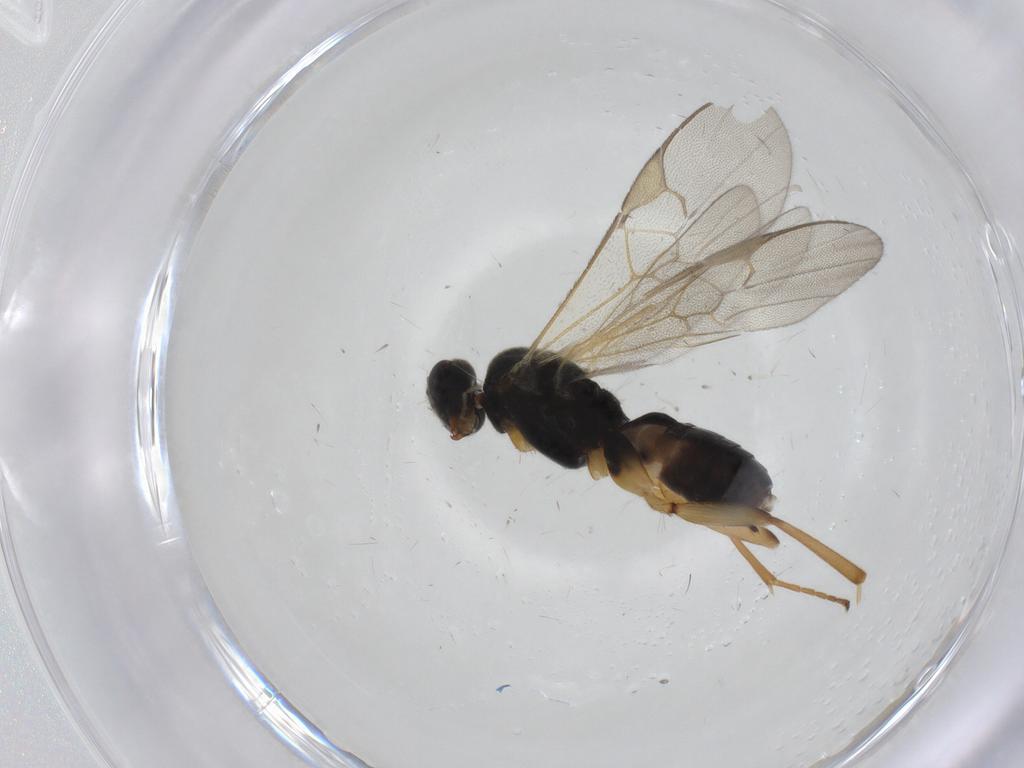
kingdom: Animalia
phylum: Arthropoda
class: Insecta
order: Hymenoptera
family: Braconidae
